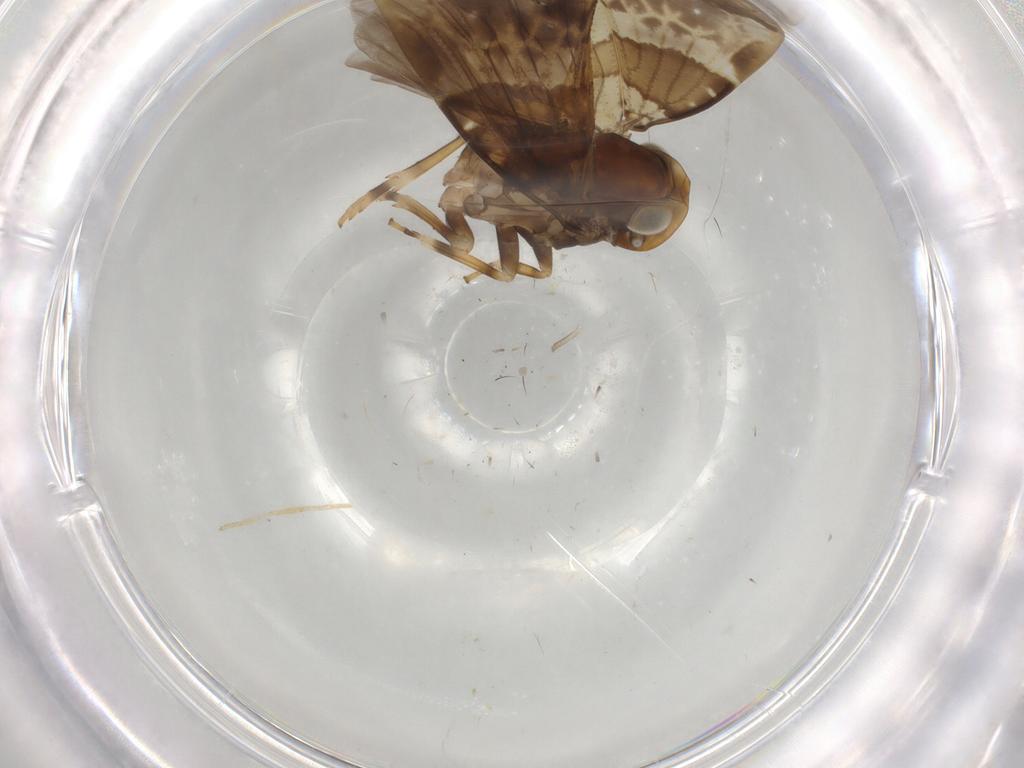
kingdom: Animalia
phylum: Arthropoda
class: Insecta
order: Hemiptera
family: Cixiidae
